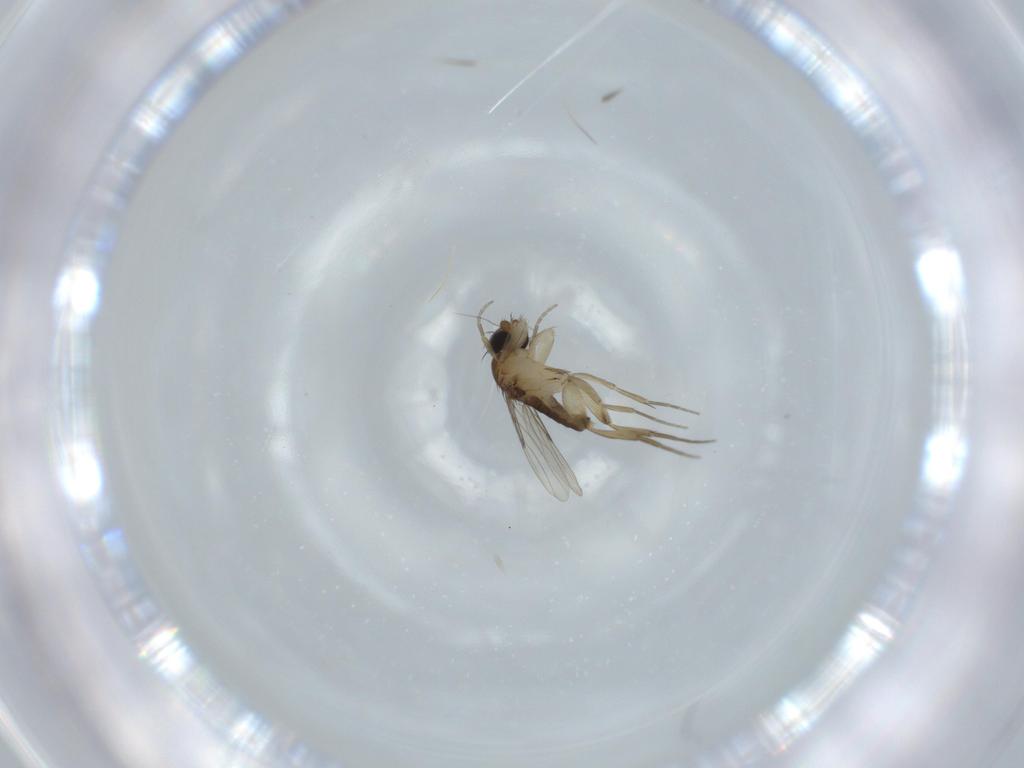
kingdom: Animalia
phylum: Arthropoda
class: Insecta
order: Diptera
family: Phoridae
